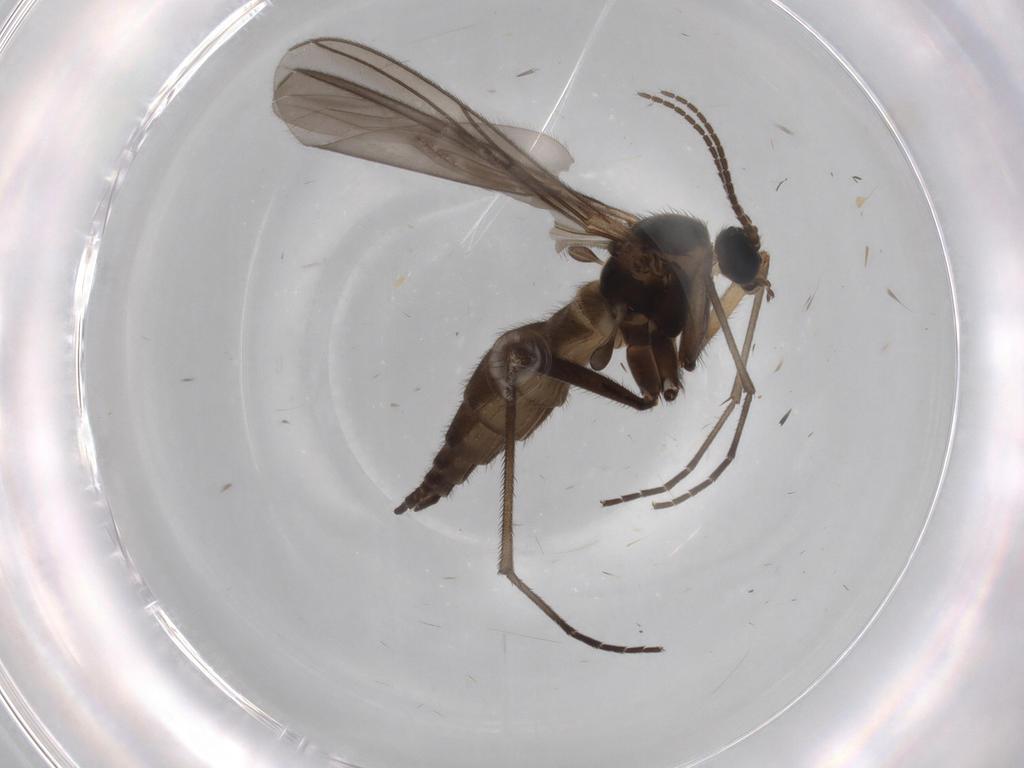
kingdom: Animalia
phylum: Arthropoda
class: Insecta
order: Diptera
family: Sciaridae
